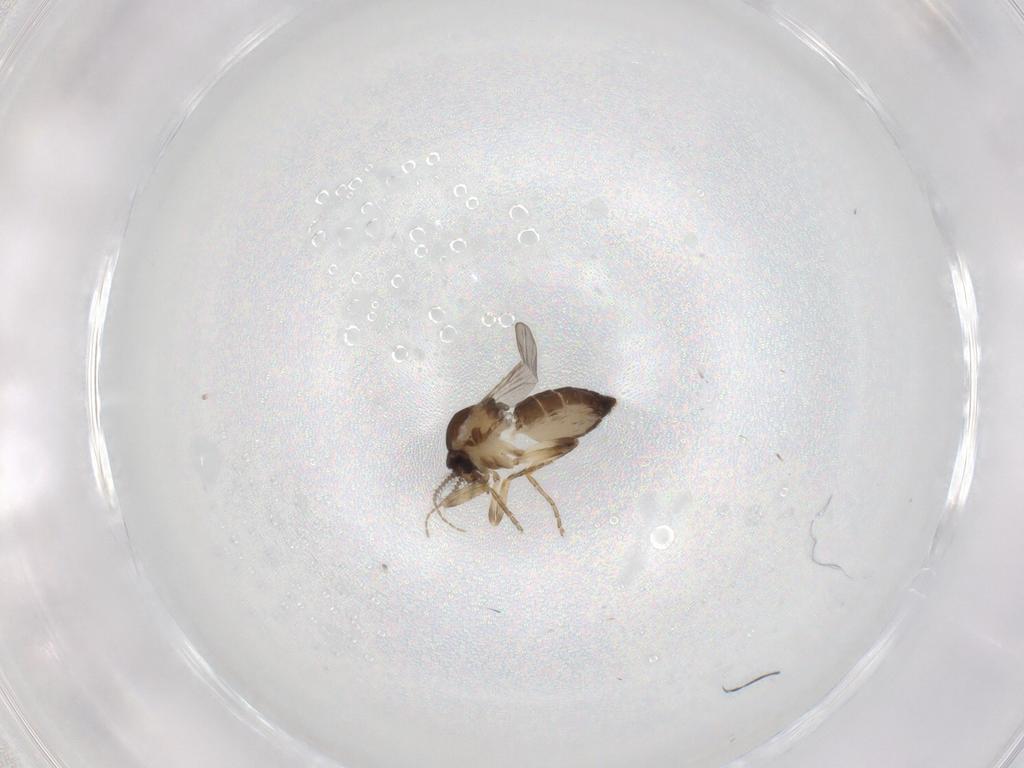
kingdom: Animalia
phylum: Arthropoda
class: Insecta
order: Diptera
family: Ceratopogonidae
